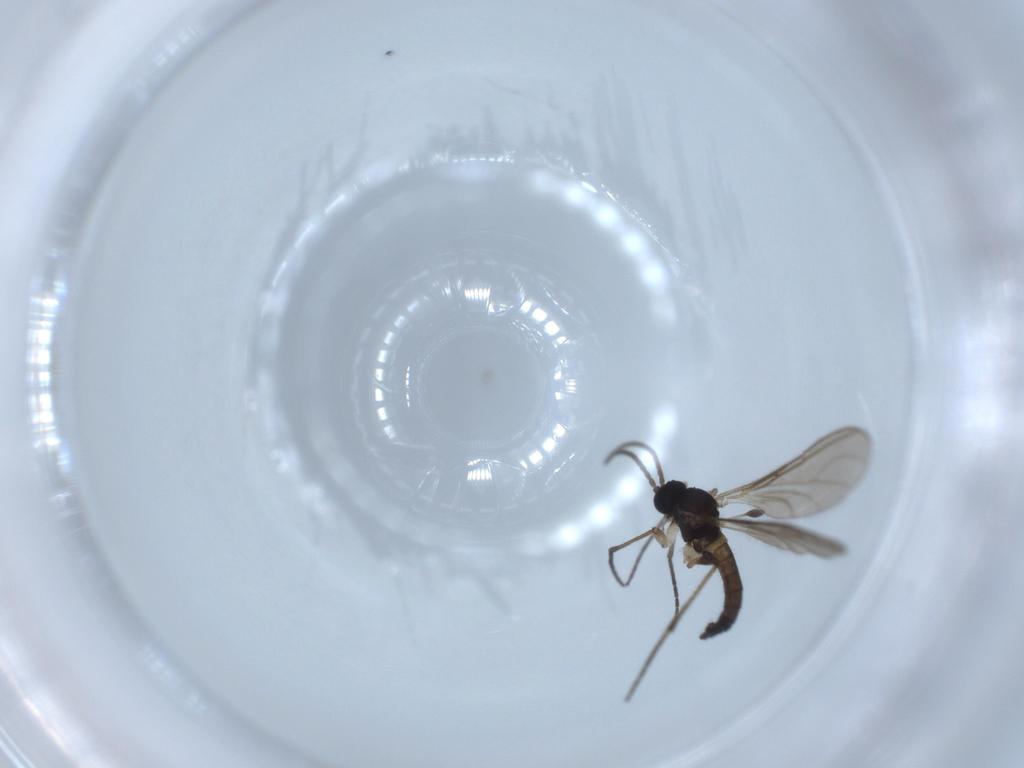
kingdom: Animalia
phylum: Arthropoda
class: Insecta
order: Diptera
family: Sciaridae
